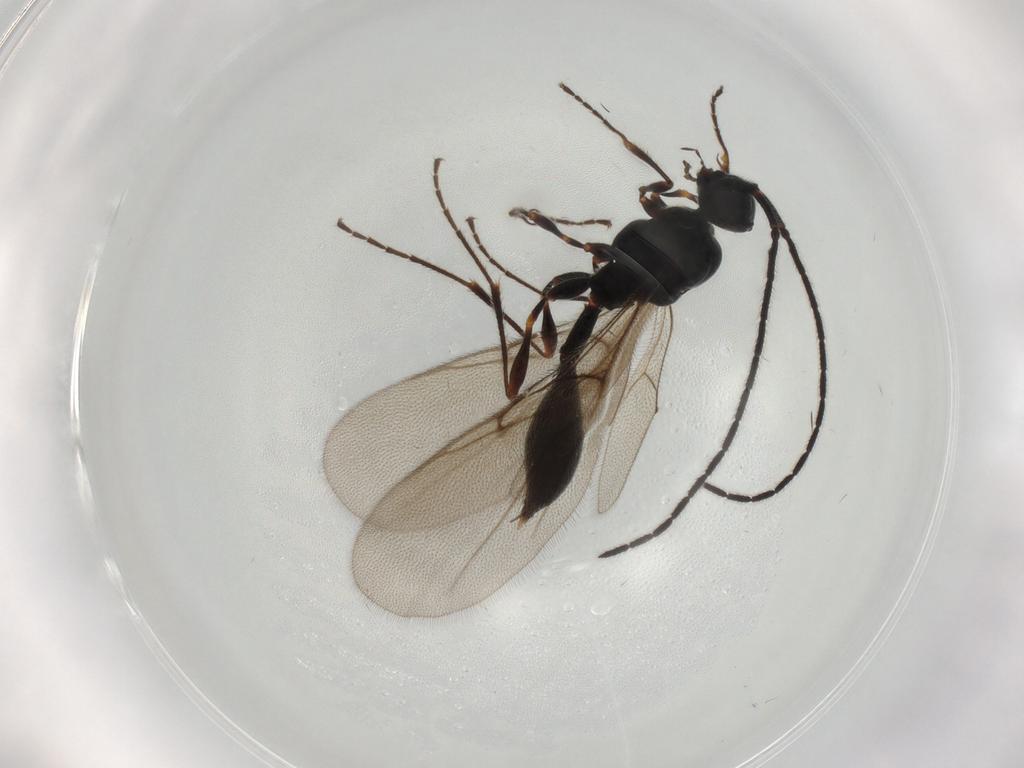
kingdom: Animalia
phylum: Arthropoda
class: Insecta
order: Hymenoptera
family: Diapriidae
